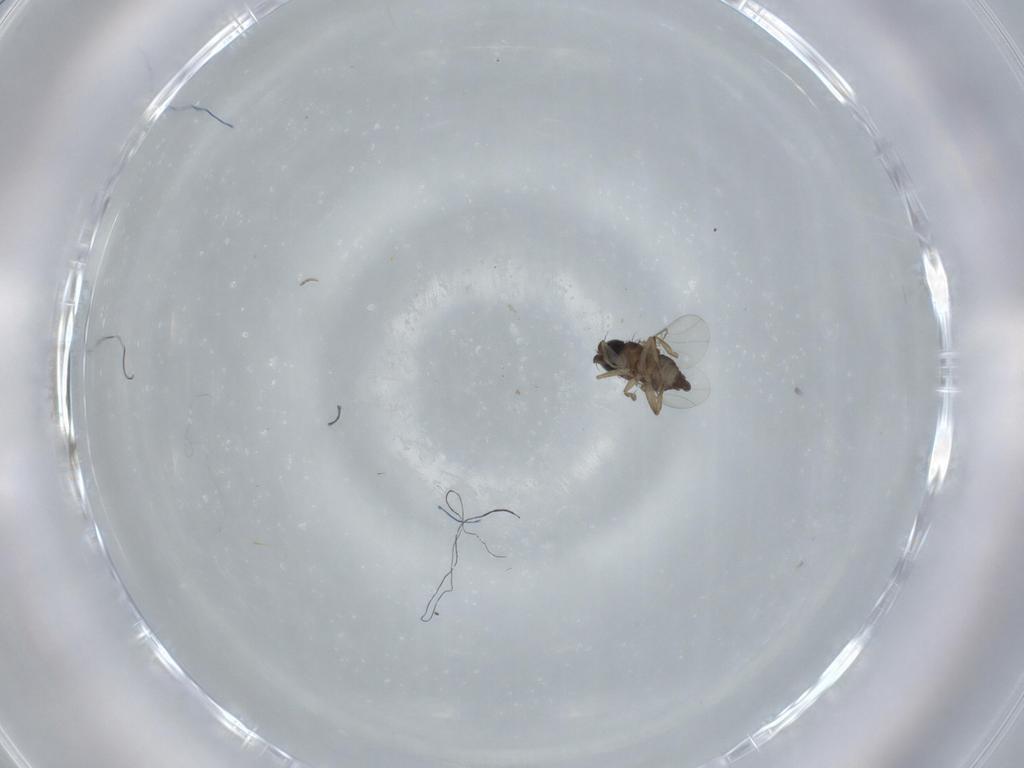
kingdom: Animalia
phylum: Arthropoda
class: Insecta
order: Diptera
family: Phoridae
